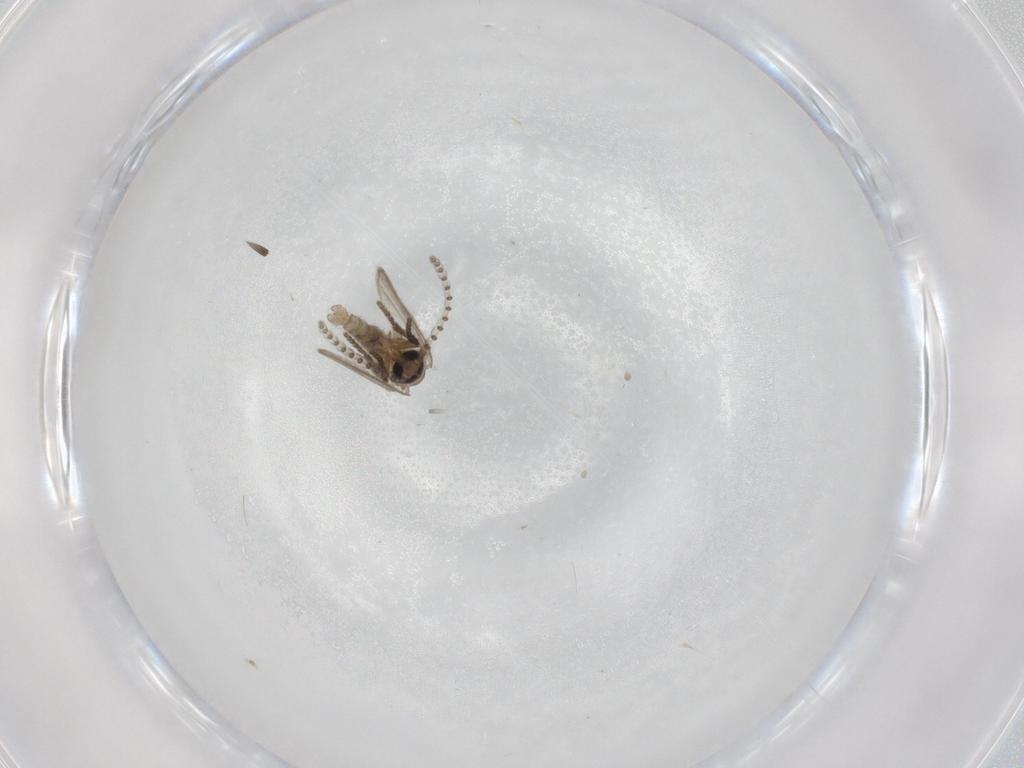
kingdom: Animalia
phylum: Arthropoda
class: Insecta
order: Diptera
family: Psychodidae
